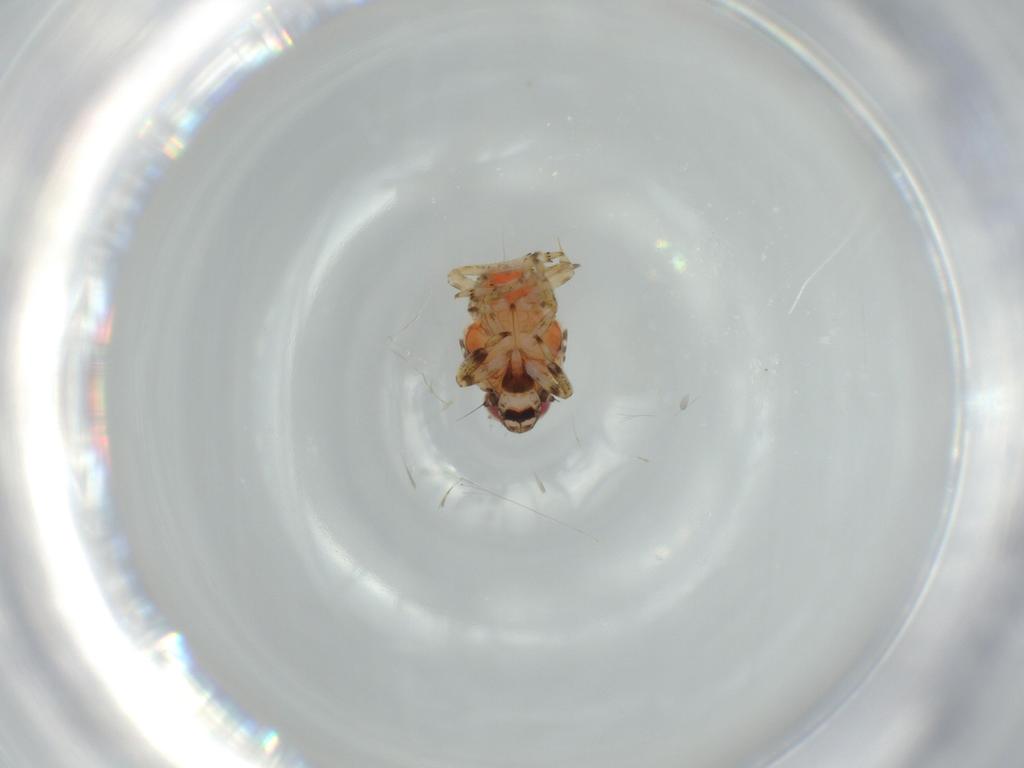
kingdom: Animalia
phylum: Arthropoda
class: Insecta
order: Hemiptera
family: Issidae
